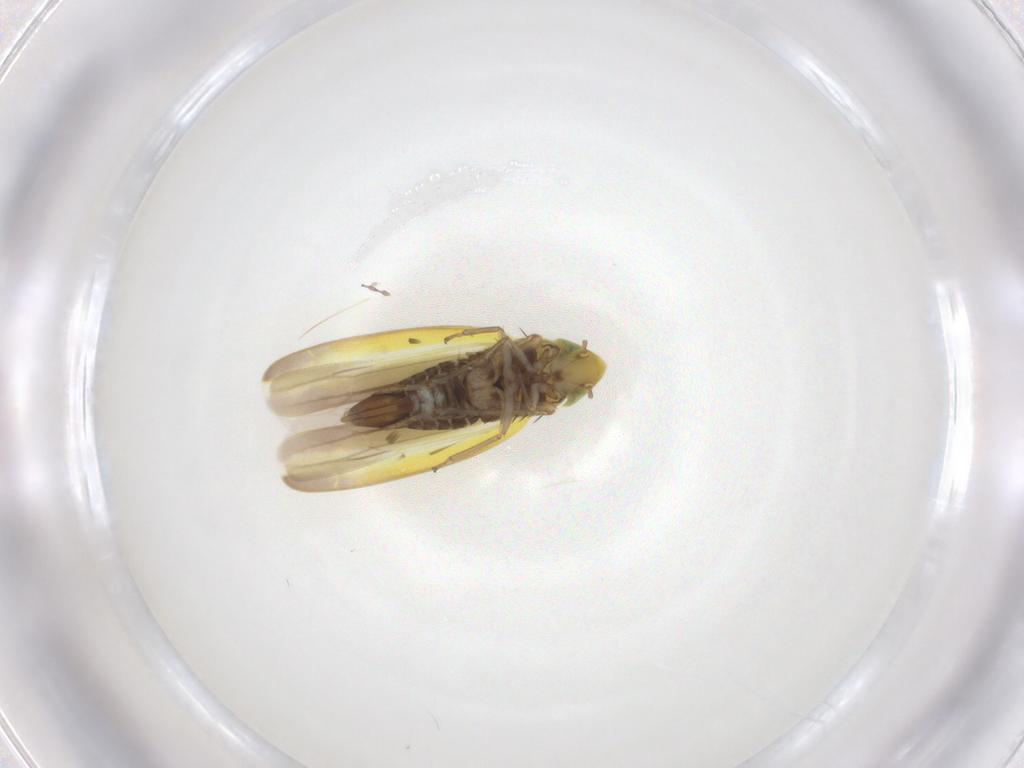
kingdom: Animalia
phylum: Arthropoda
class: Insecta
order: Hemiptera
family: Cicadellidae
